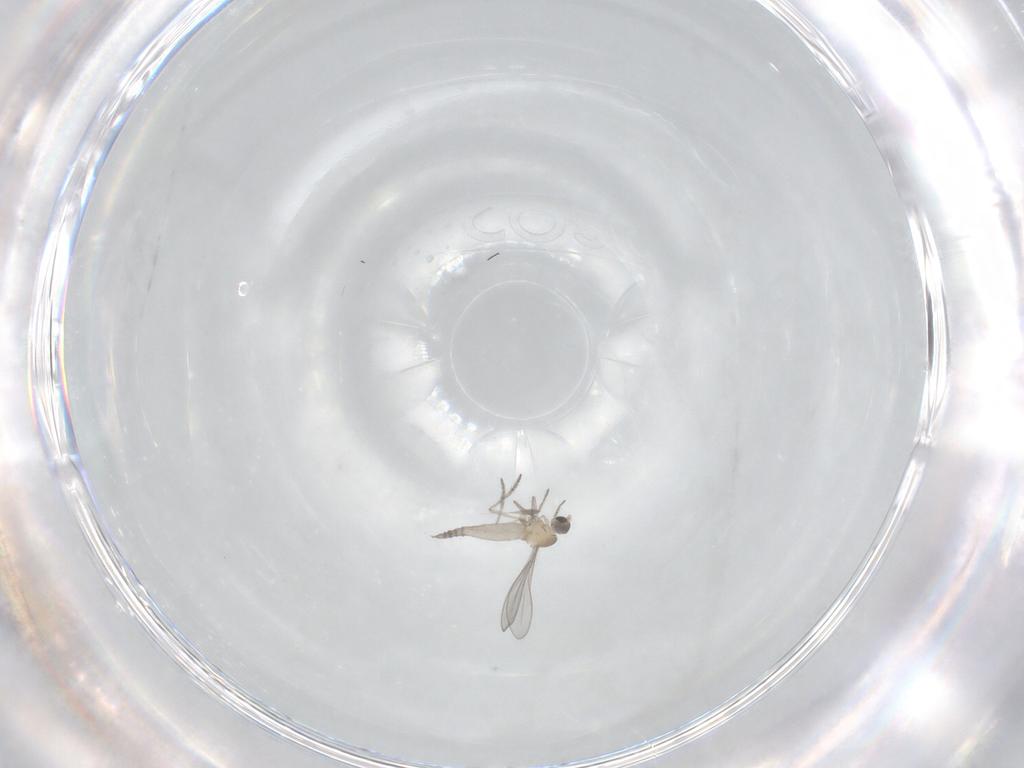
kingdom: Animalia
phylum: Arthropoda
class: Insecta
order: Diptera
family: Cecidomyiidae
